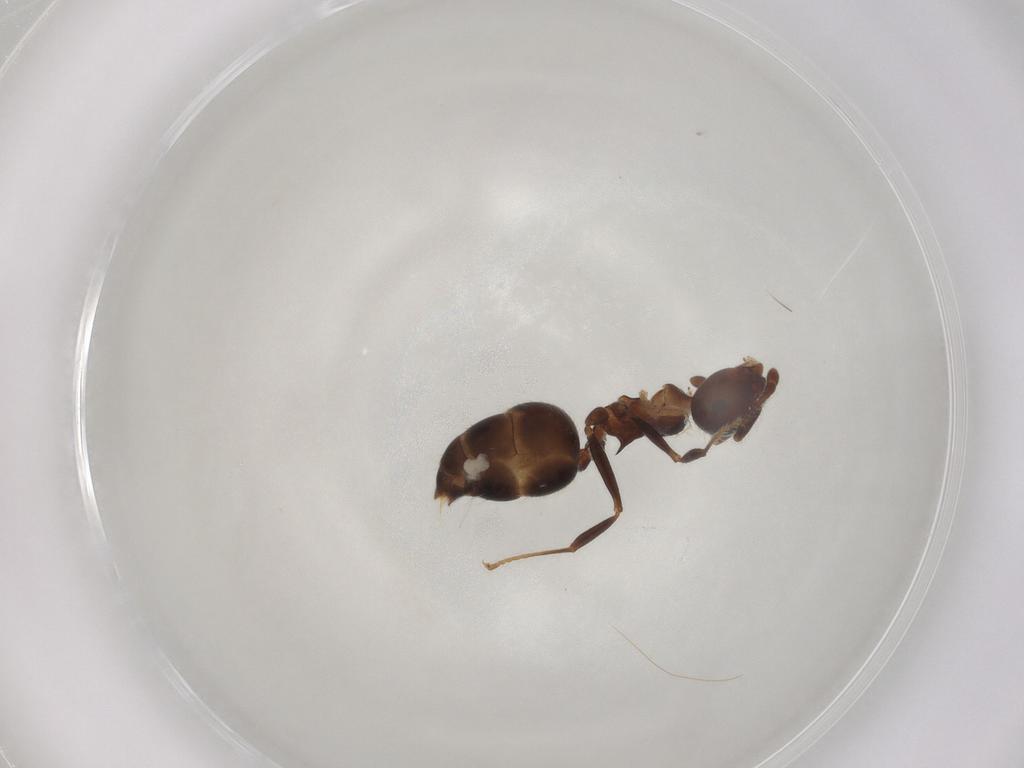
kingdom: Animalia
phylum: Arthropoda
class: Insecta
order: Hymenoptera
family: Formicidae
